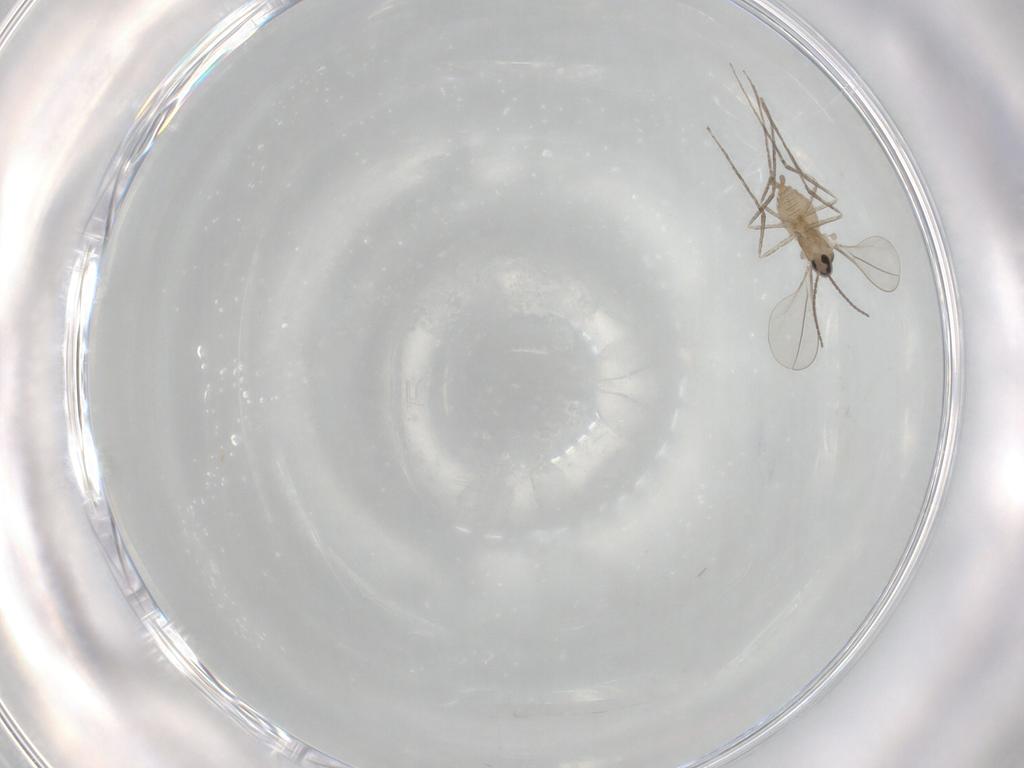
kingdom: Animalia
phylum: Arthropoda
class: Insecta
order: Diptera
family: Cecidomyiidae
